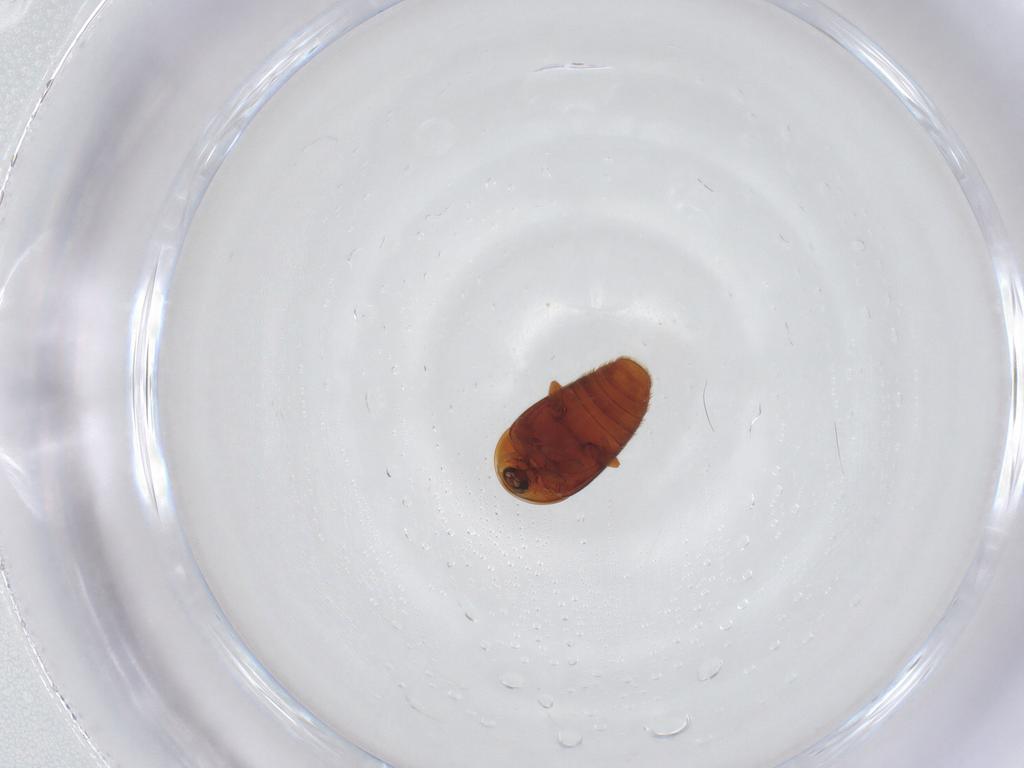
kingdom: Animalia
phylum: Arthropoda
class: Insecta
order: Coleoptera
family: Corylophidae
